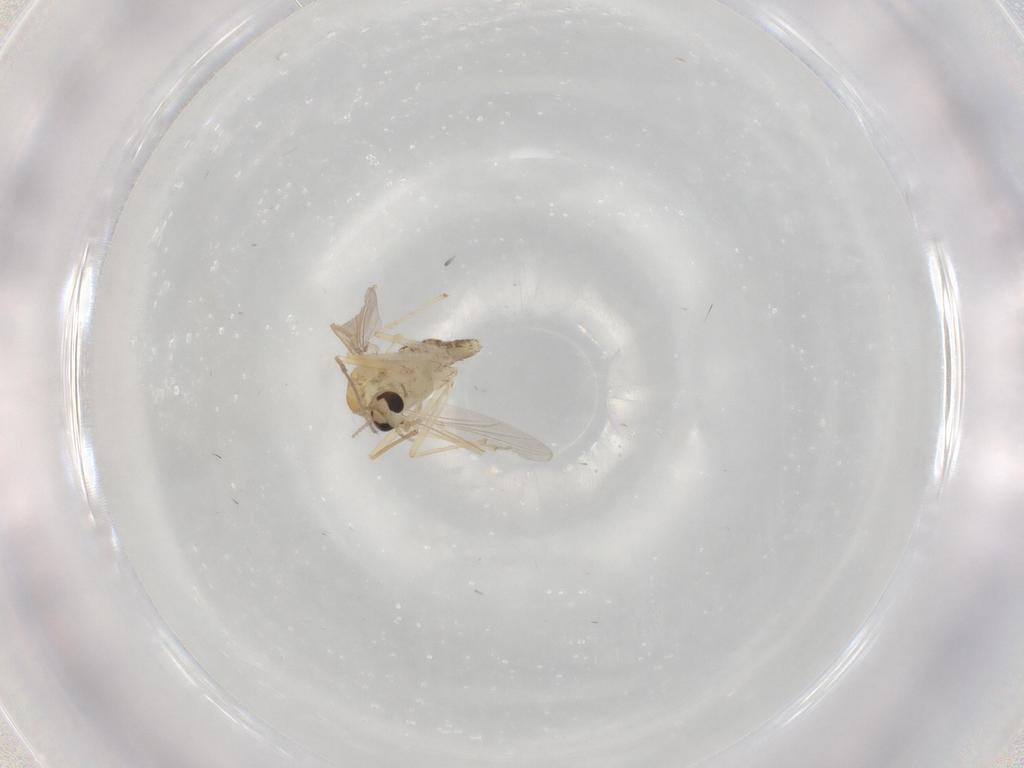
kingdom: Animalia
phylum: Arthropoda
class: Insecta
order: Diptera
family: Chironomidae
